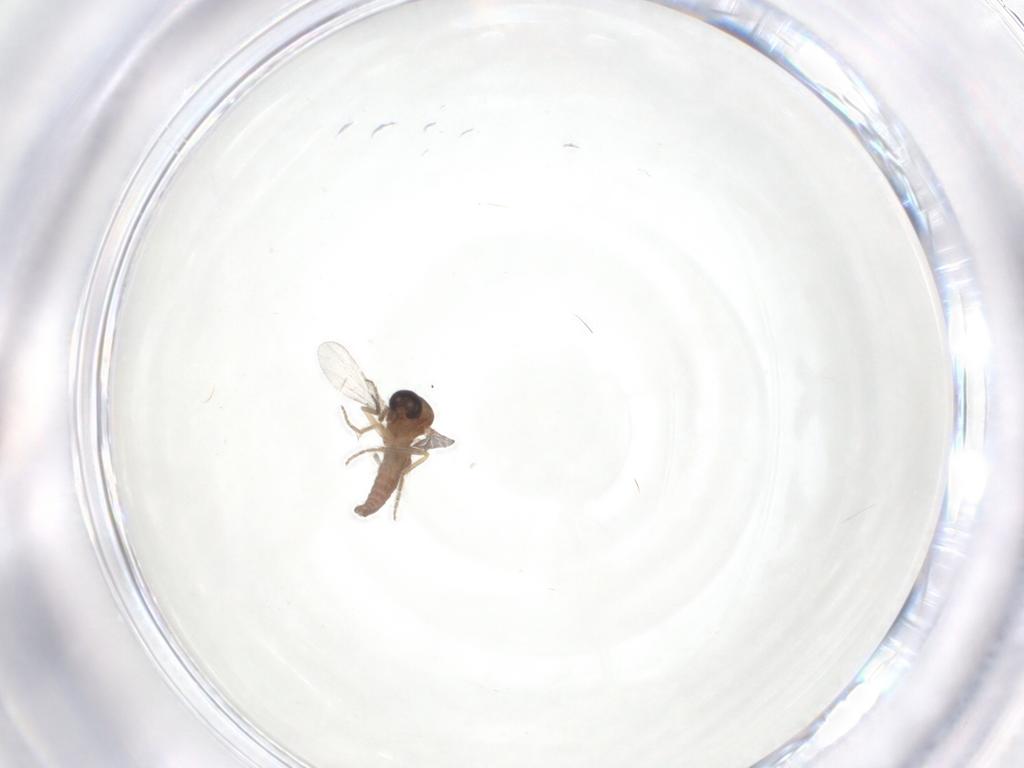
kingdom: Animalia
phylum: Arthropoda
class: Insecta
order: Diptera
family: Ceratopogonidae
